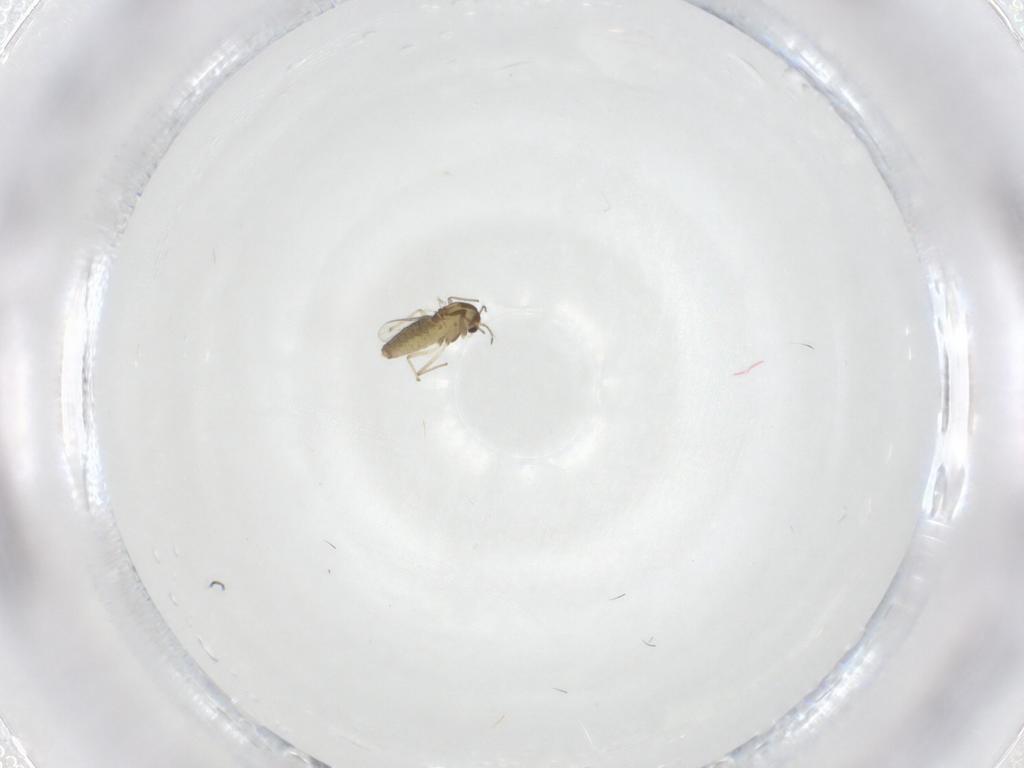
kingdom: Animalia
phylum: Arthropoda
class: Insecta
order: Diptera
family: Chironomidae
